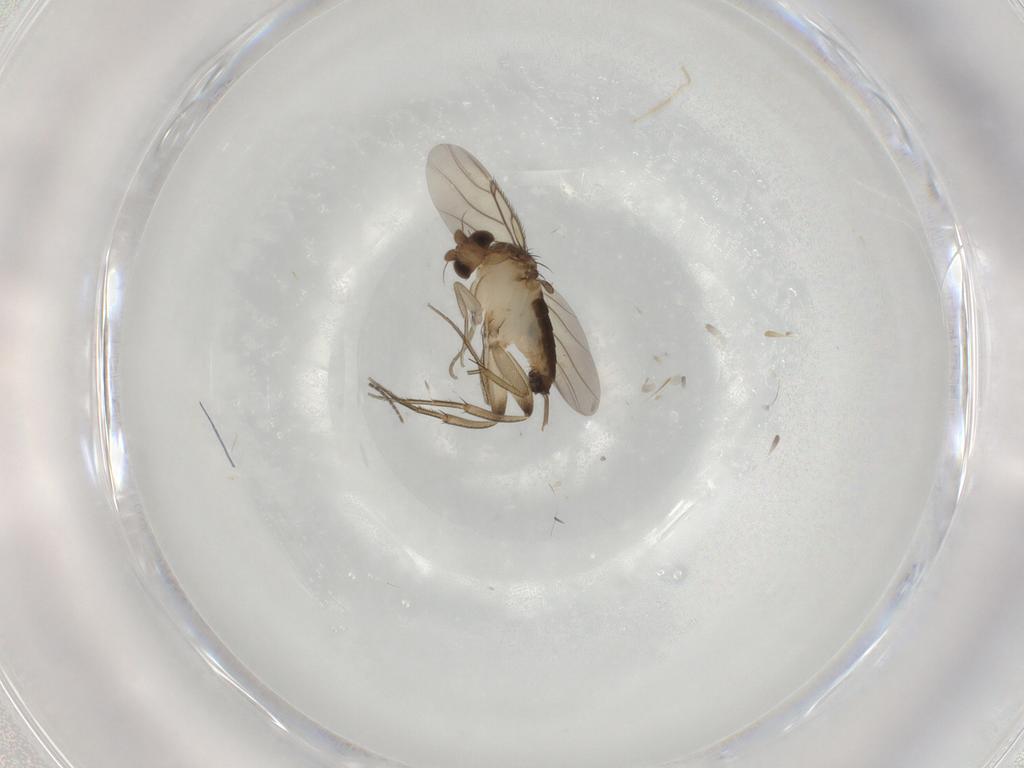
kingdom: Animalia
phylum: Arthropoda
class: Insecta
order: Diptera
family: Phoridae
